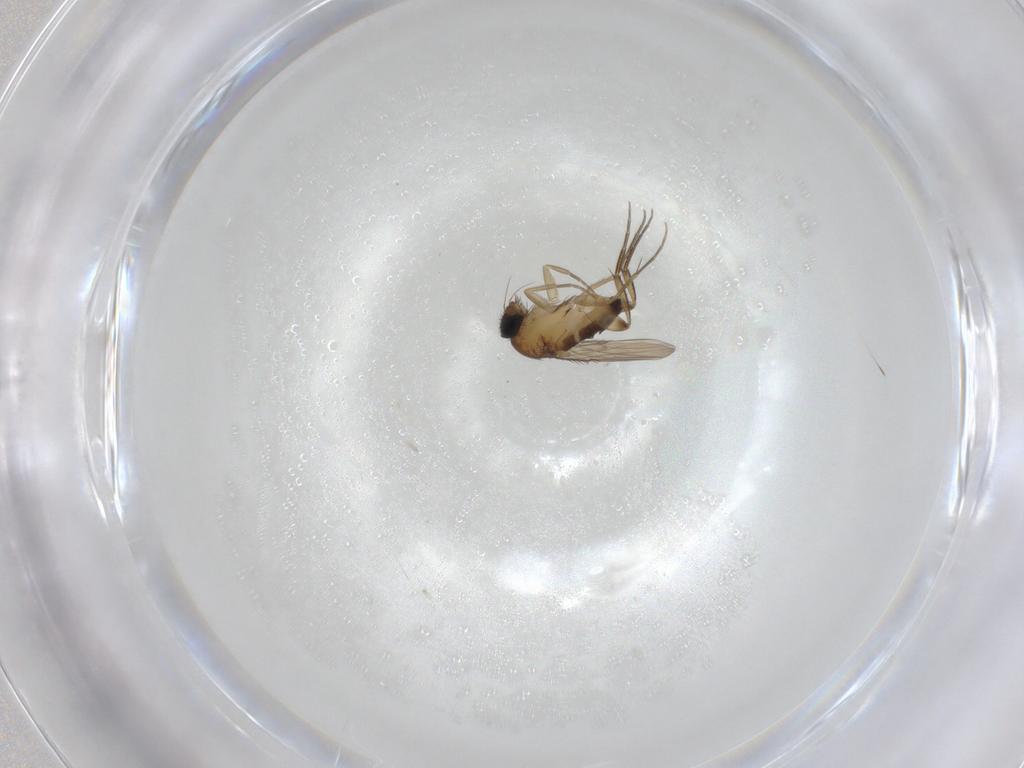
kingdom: Animalia
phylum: Arthropoda
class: Insecta
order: Diptera
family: Phoridae
